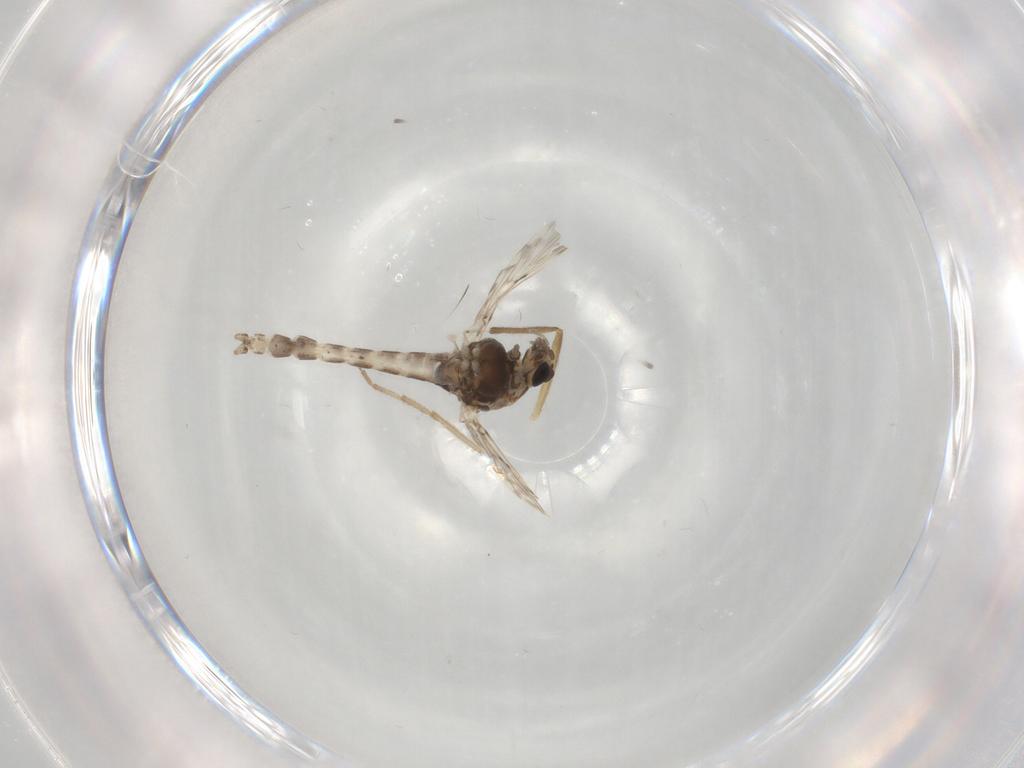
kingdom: Animalia
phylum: Arthropoda
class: Insecta
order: Diptera
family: Chironomidae
